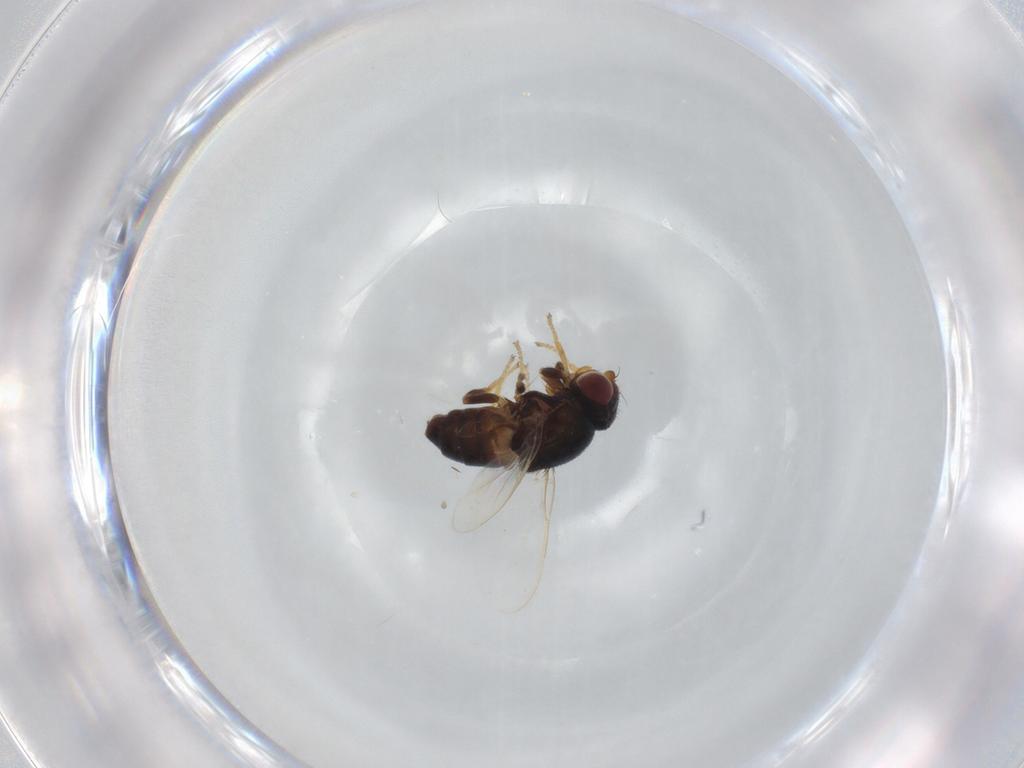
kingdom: Animalia
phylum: Arthropoda
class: Insecta
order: Diptera
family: Chloropidae
